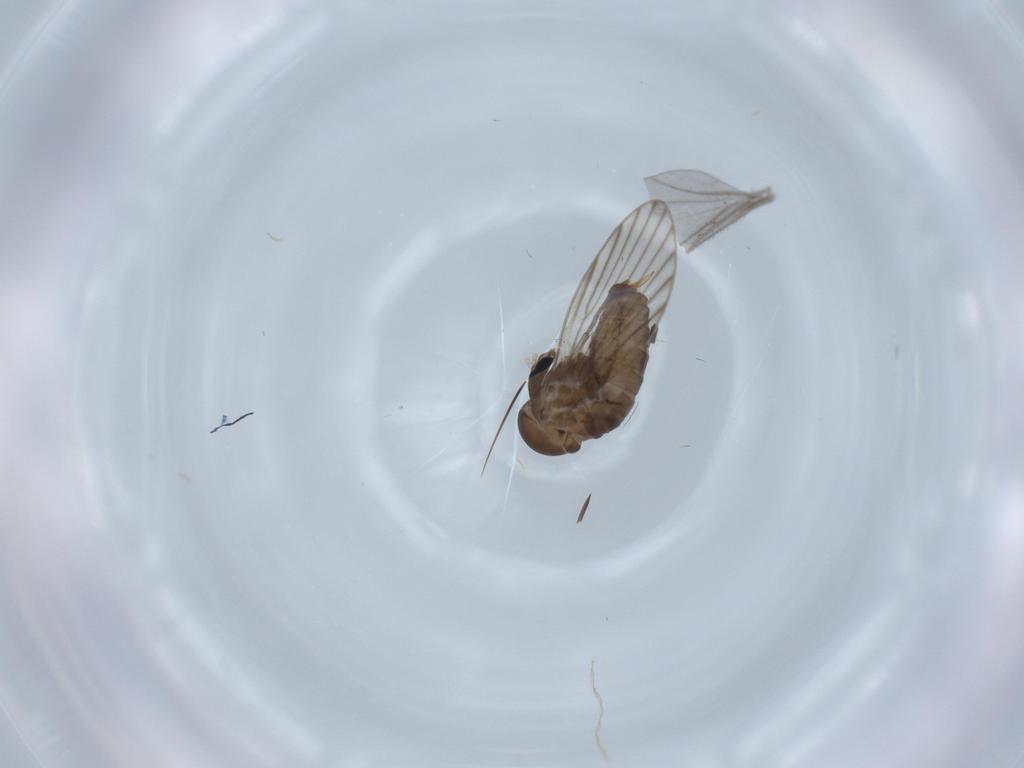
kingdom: Animalia
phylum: Arthropoda
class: Insecta
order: Diptera
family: Psychodidae
